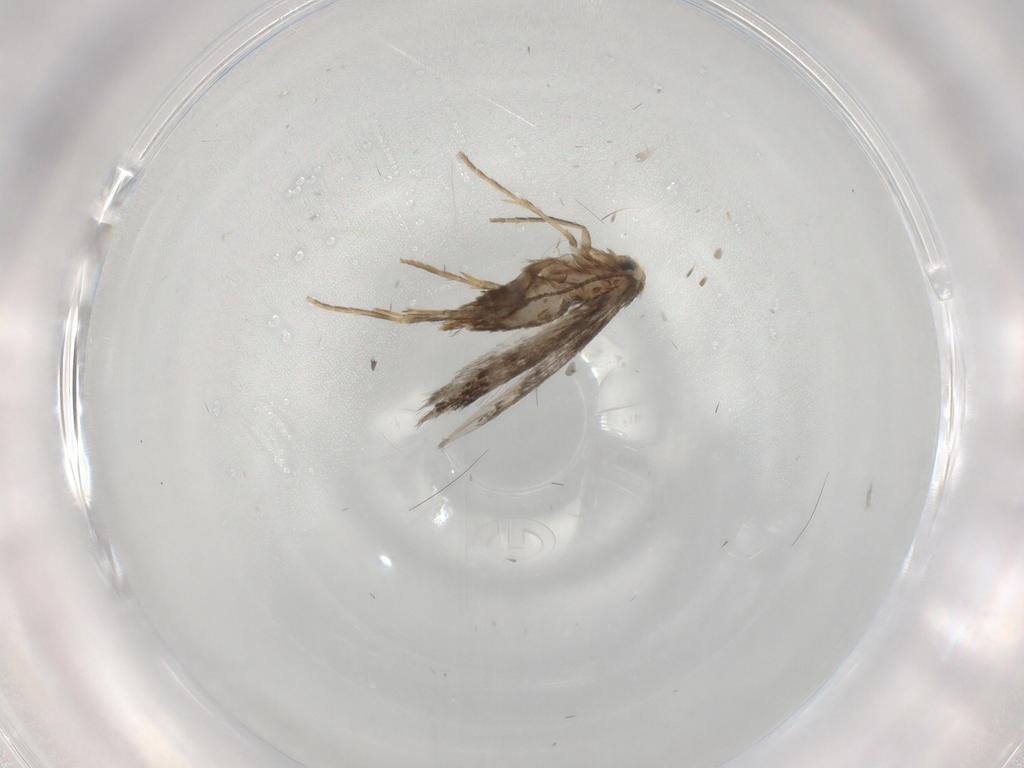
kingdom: Animalia
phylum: Arthropoda
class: Insecta
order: Lepidoptera
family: Nepticulidae
